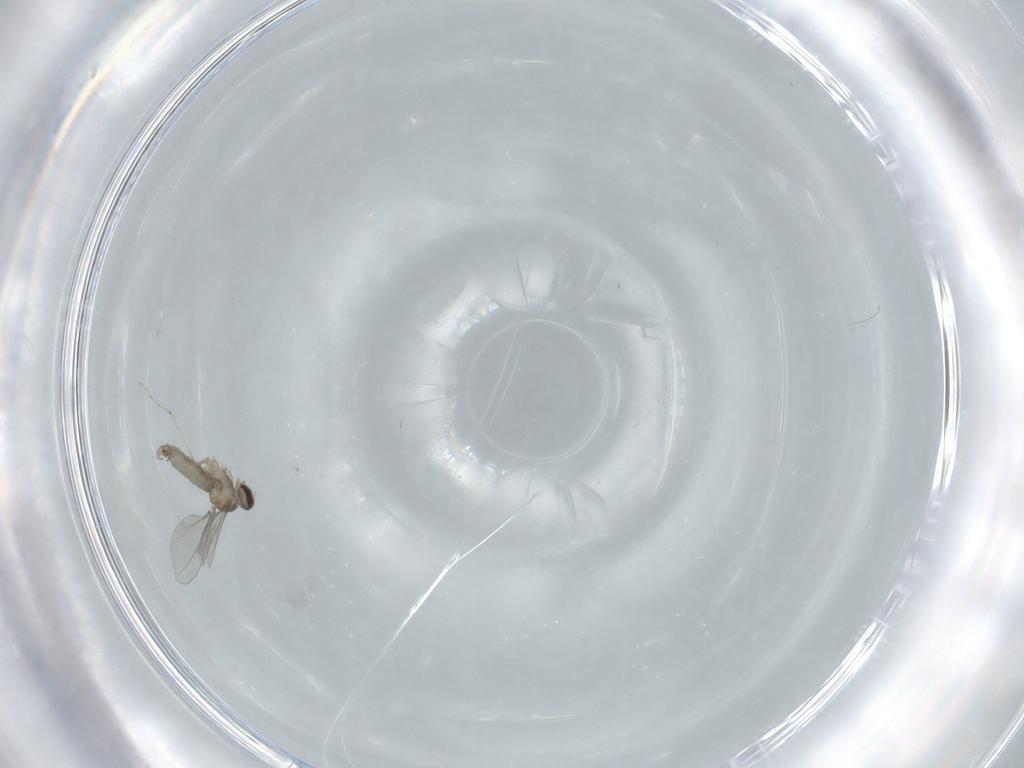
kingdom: Animalia
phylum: Arthropoda
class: Insecta
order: Diptera
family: Cecidomyiidae
